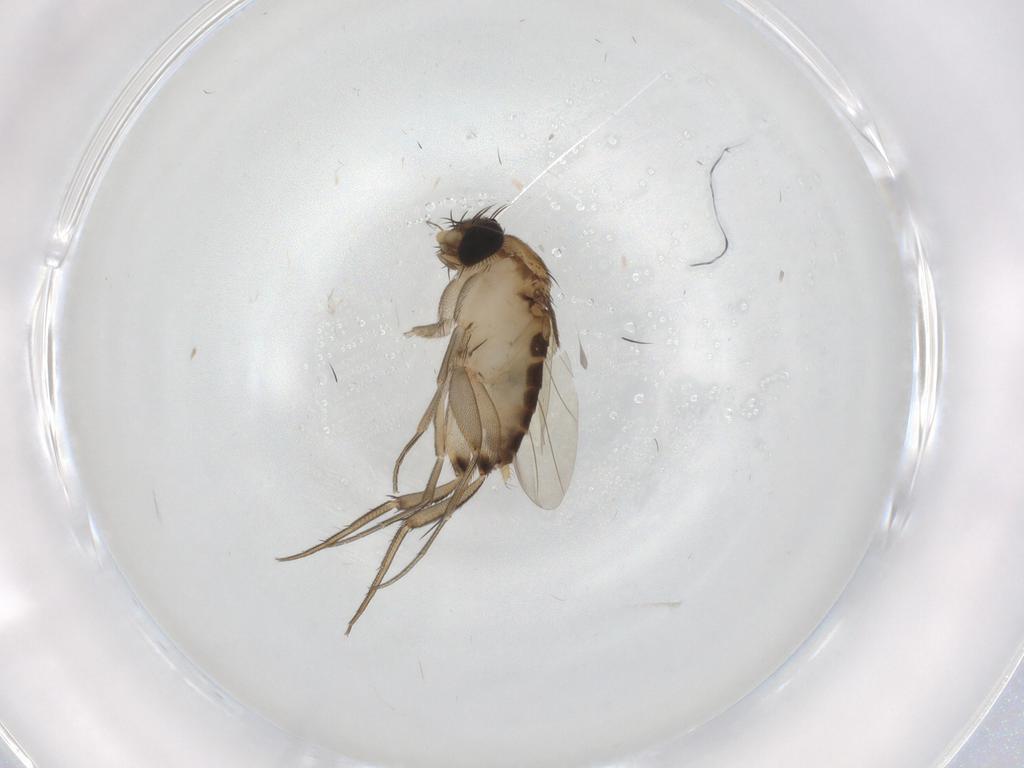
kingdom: Animalia
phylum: Arthropoda
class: Insecta
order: Diptera
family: Phoridae
